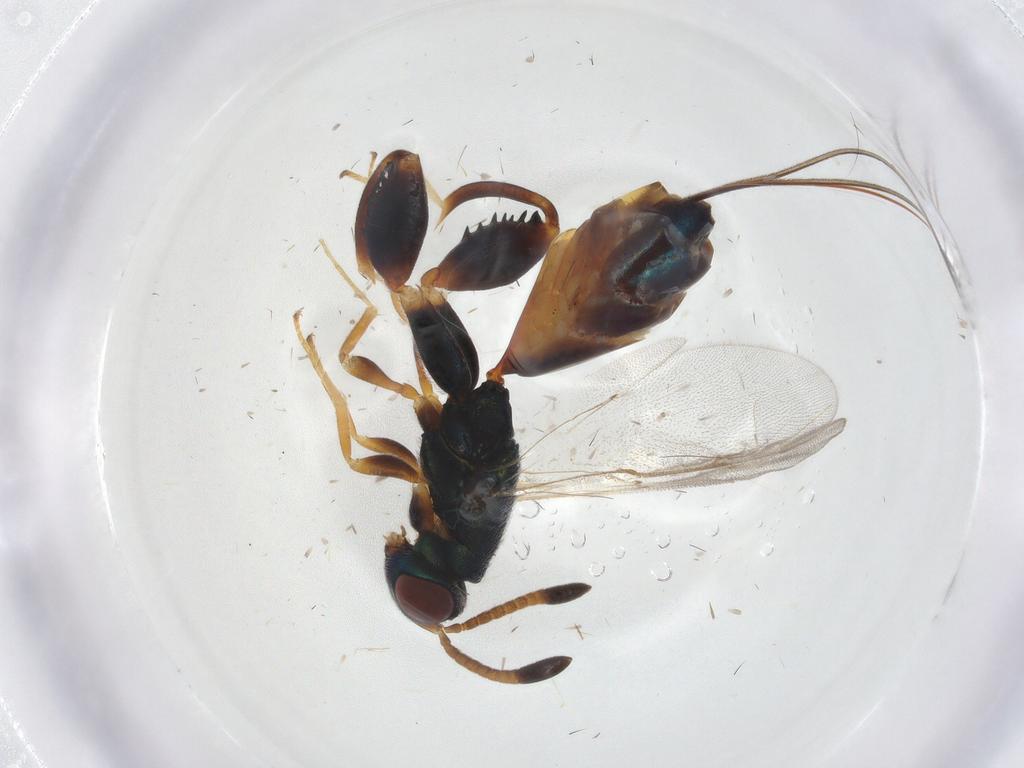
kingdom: Animalia
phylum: Arthropoda
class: Insecta
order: Hymenoptera
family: Torymidae
